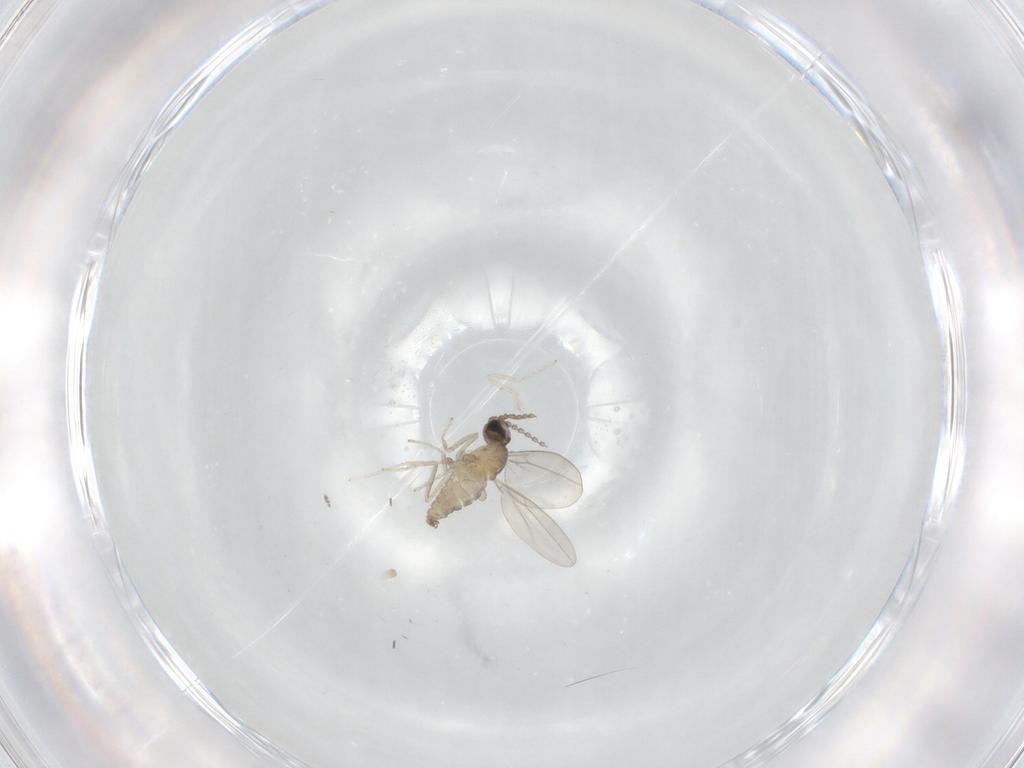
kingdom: Animalia
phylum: Arthropoda
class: Insecta
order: Diptera
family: Cecidomyiidae
